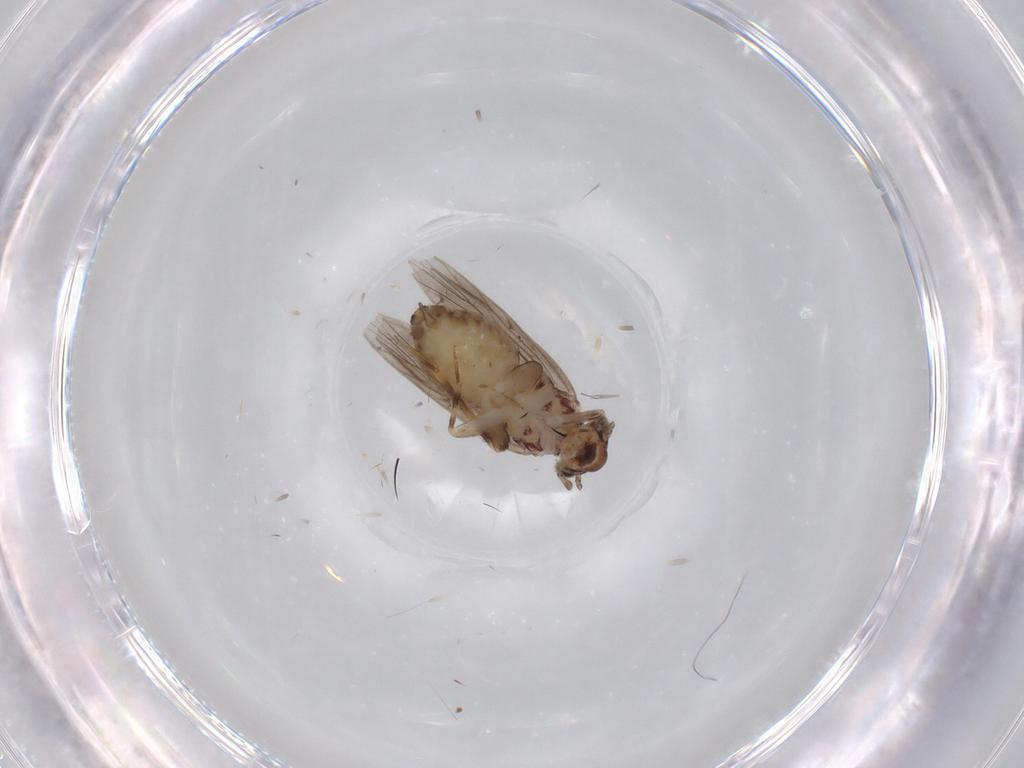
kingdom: Animalia
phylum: Arthropoda
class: Insecta
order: Psocodea
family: Lepidopsocidae
